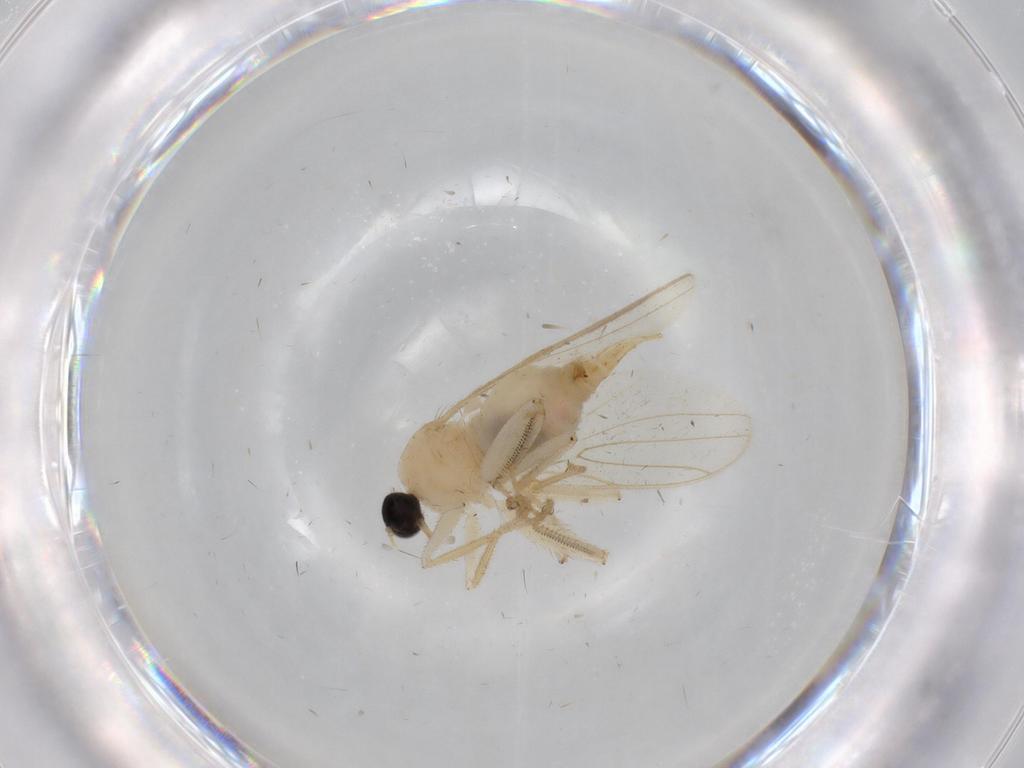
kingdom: Animalia
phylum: Arthropoda
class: Insecta
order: Diptera
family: Hybotidae
